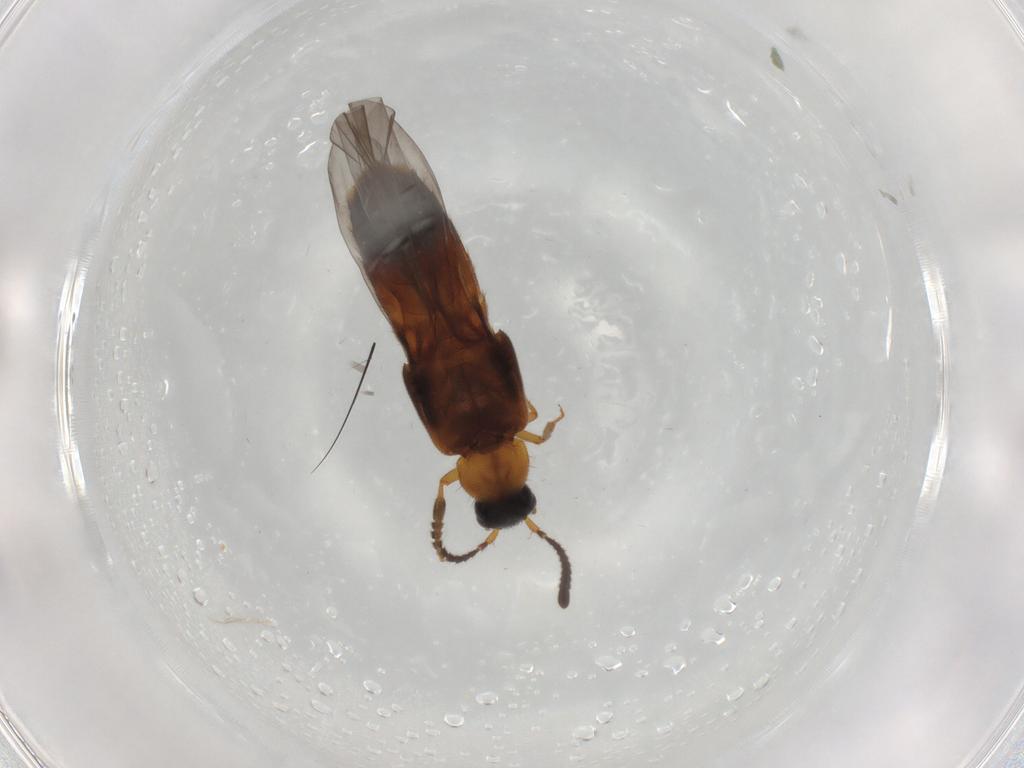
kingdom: Animalia
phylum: Arthropoda
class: Insecta
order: Coleoptera
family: Staphylinidae
